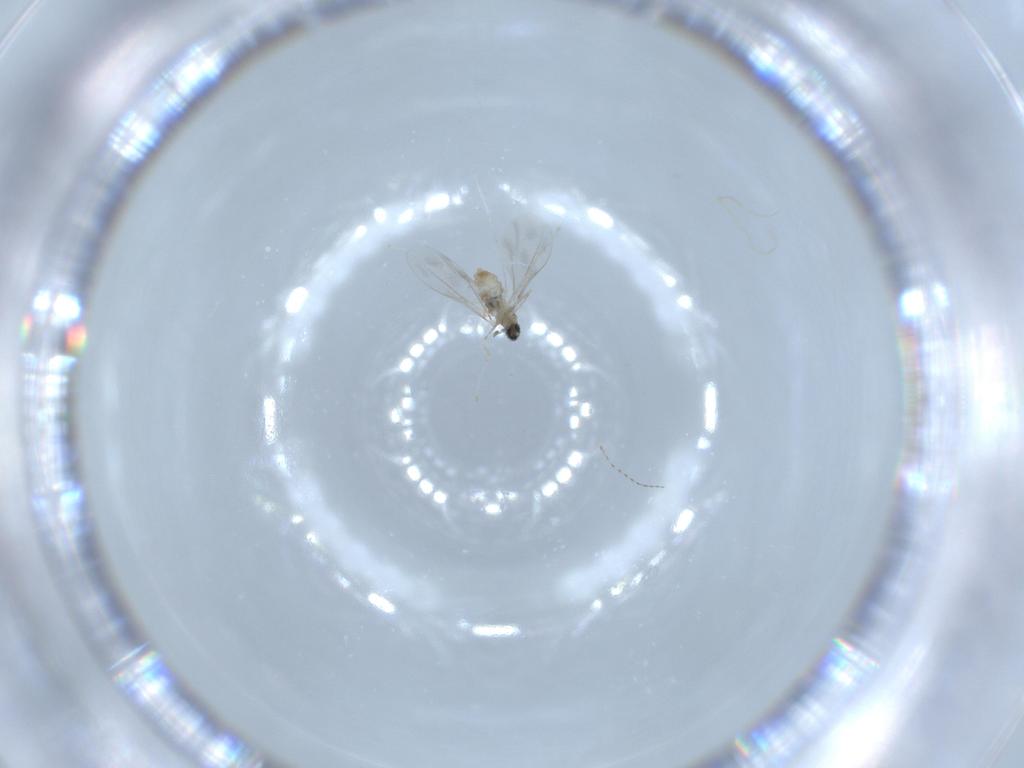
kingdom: Animalia
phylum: Arthropoda
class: Insecta
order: Diptera
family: Cecidomyiidae
